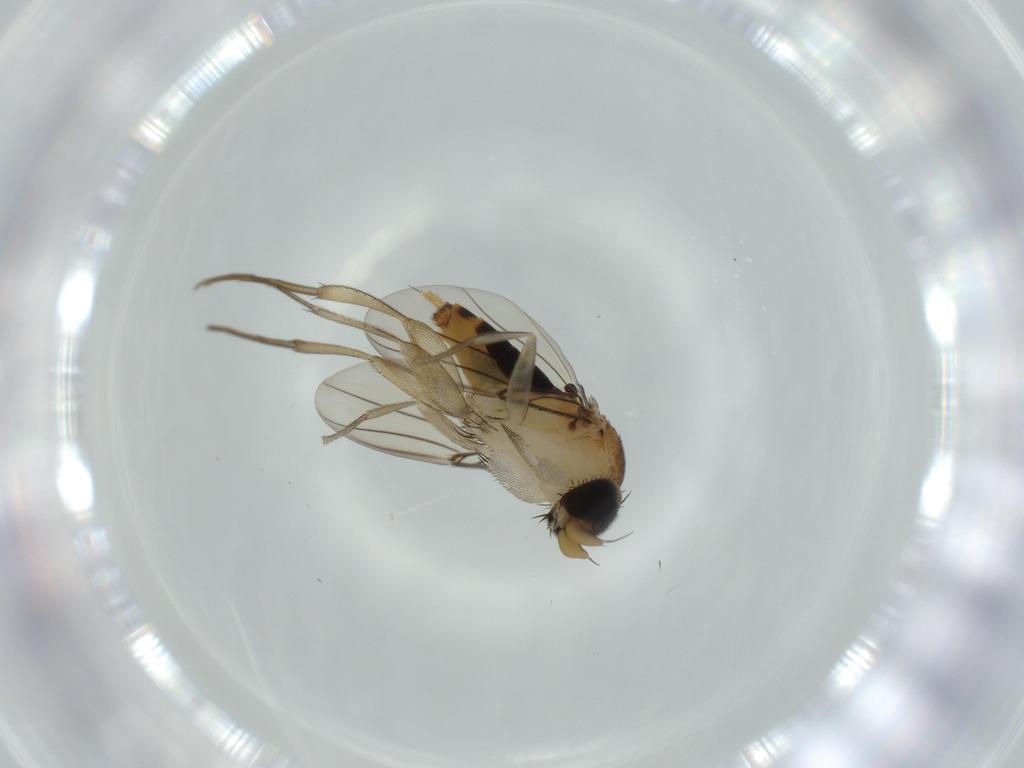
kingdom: Animalia
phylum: Arthropoda
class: Insecta
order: Diptera
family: Phoridae
